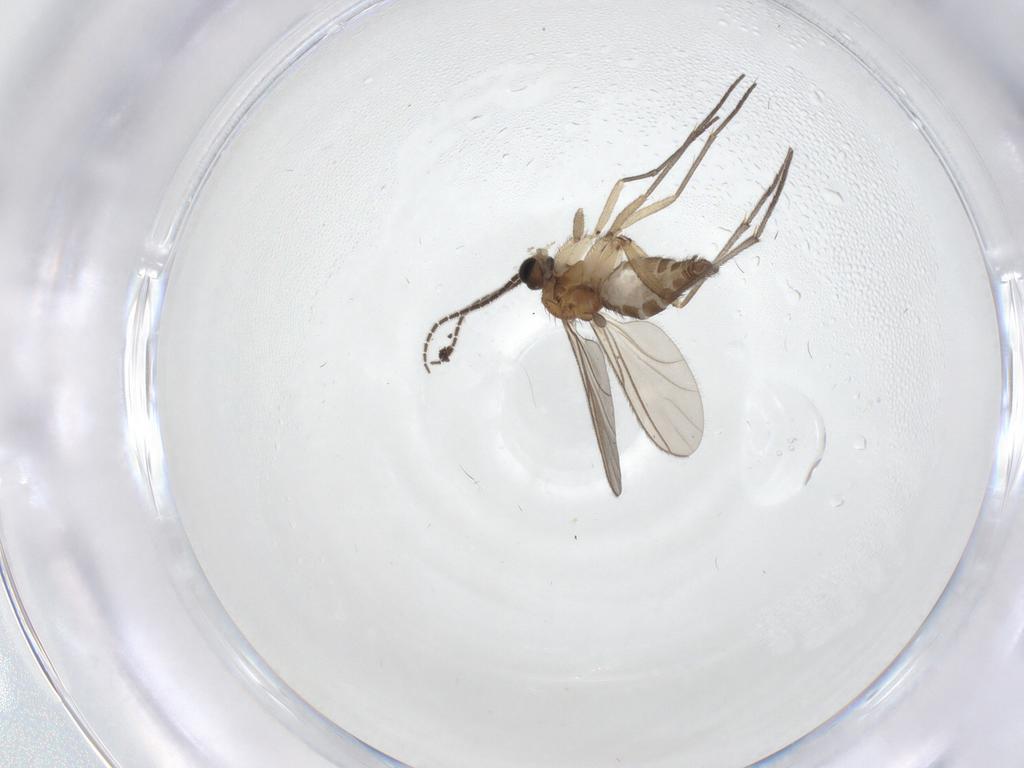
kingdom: Animalia
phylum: Arthropoda
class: Insecta
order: Diptera
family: Sciaridae
